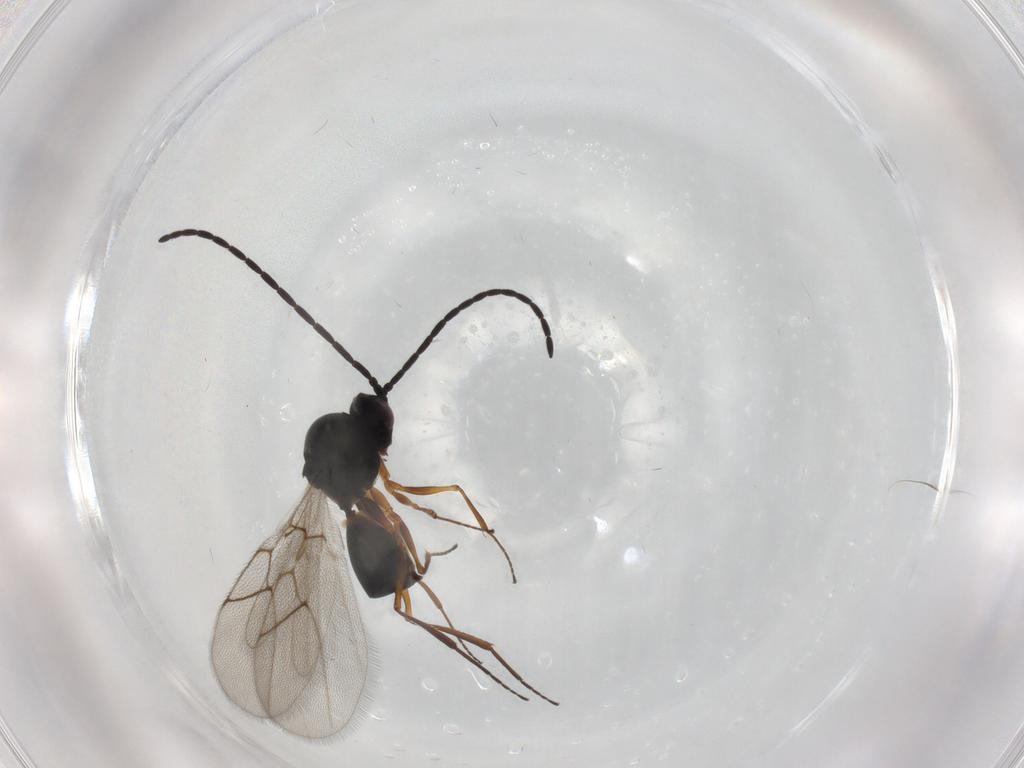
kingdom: Animalia
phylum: Arthropoda
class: Insecta
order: Hymenoptera
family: Figitidae
